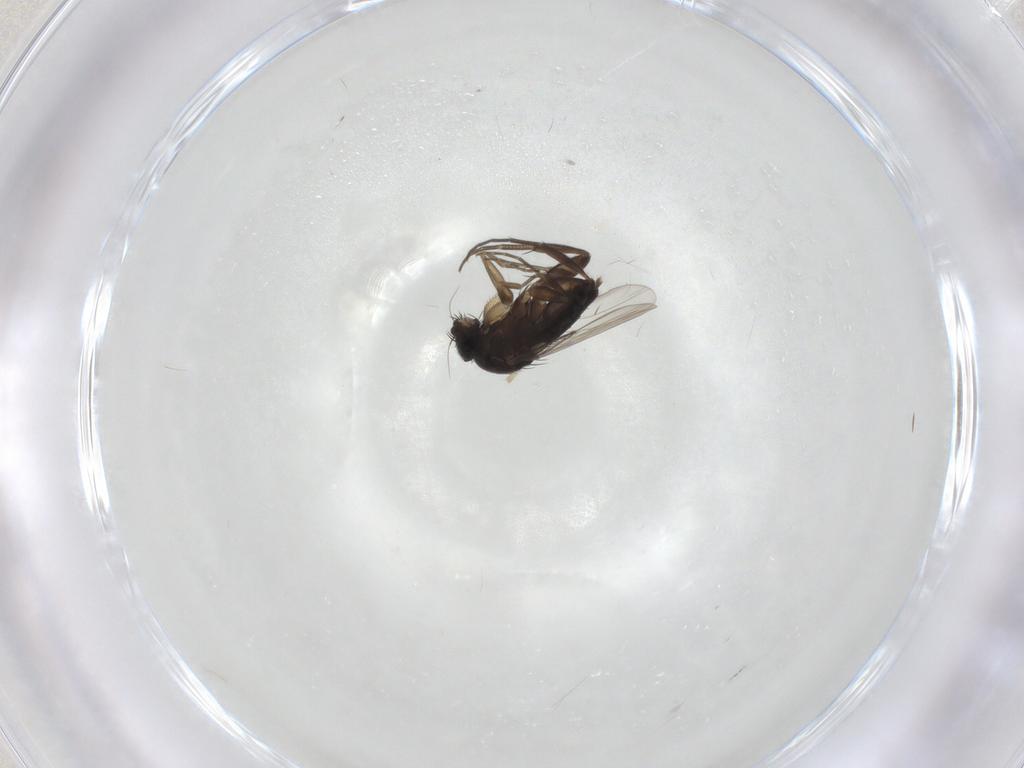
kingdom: Animalia
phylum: Arthropoda
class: Insecta
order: Diptera
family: Phoridae
